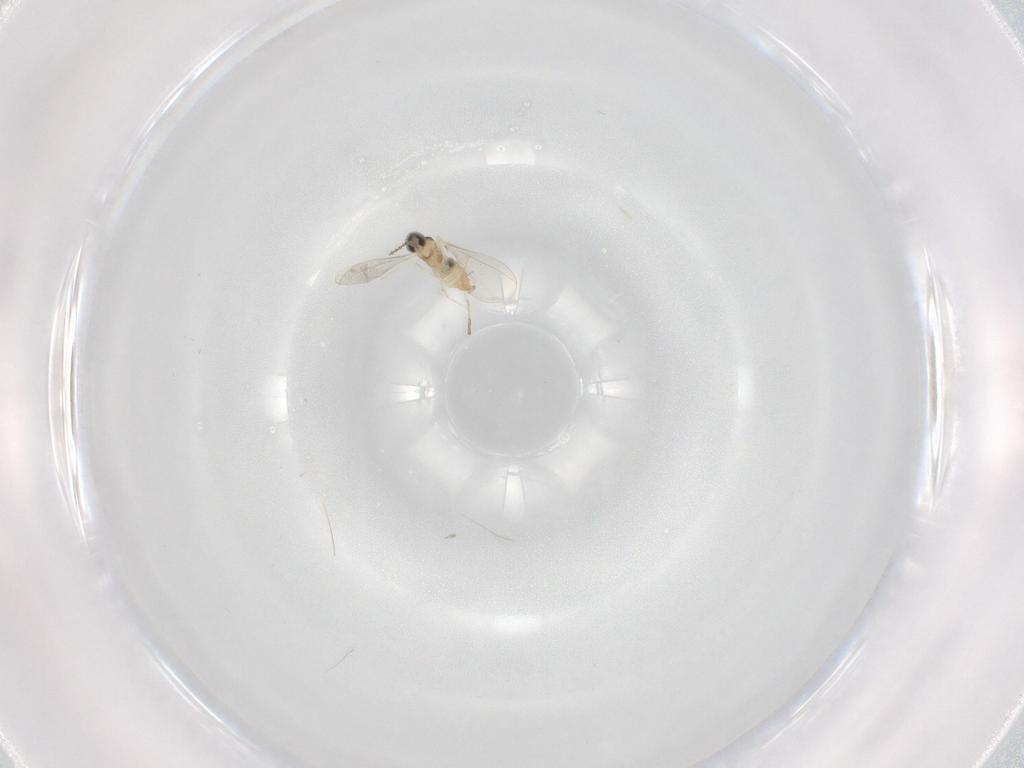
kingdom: Animalia
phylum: Arthropoda
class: Insecta
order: Diptera
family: Cecidomyiidae
